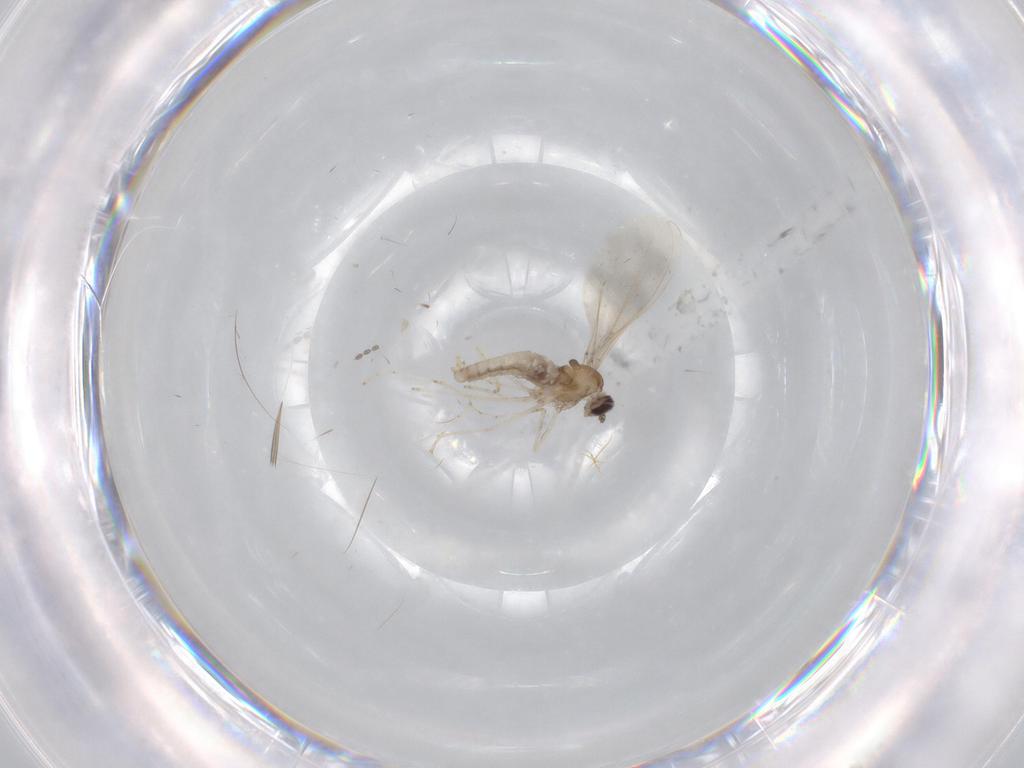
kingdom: Animalia
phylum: Arthropoda
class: Insecta
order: Diptera
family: Cecidomyiidae
